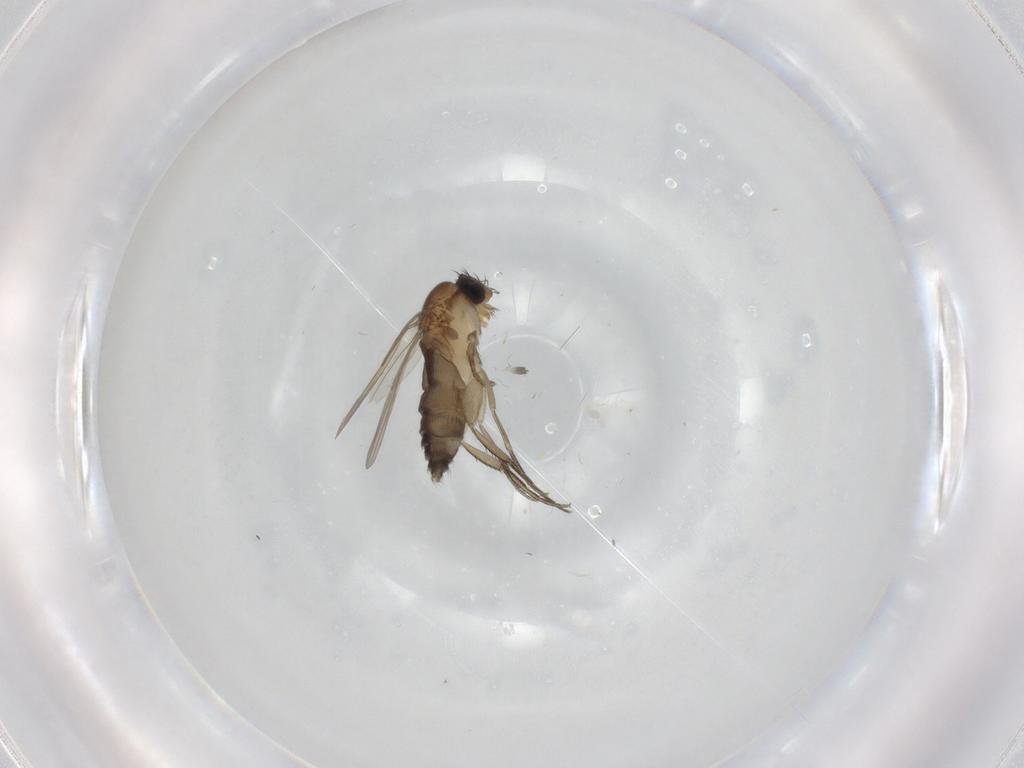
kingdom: Animalia
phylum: Arthropoda
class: Insecta
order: Diptera
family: Phoridae
